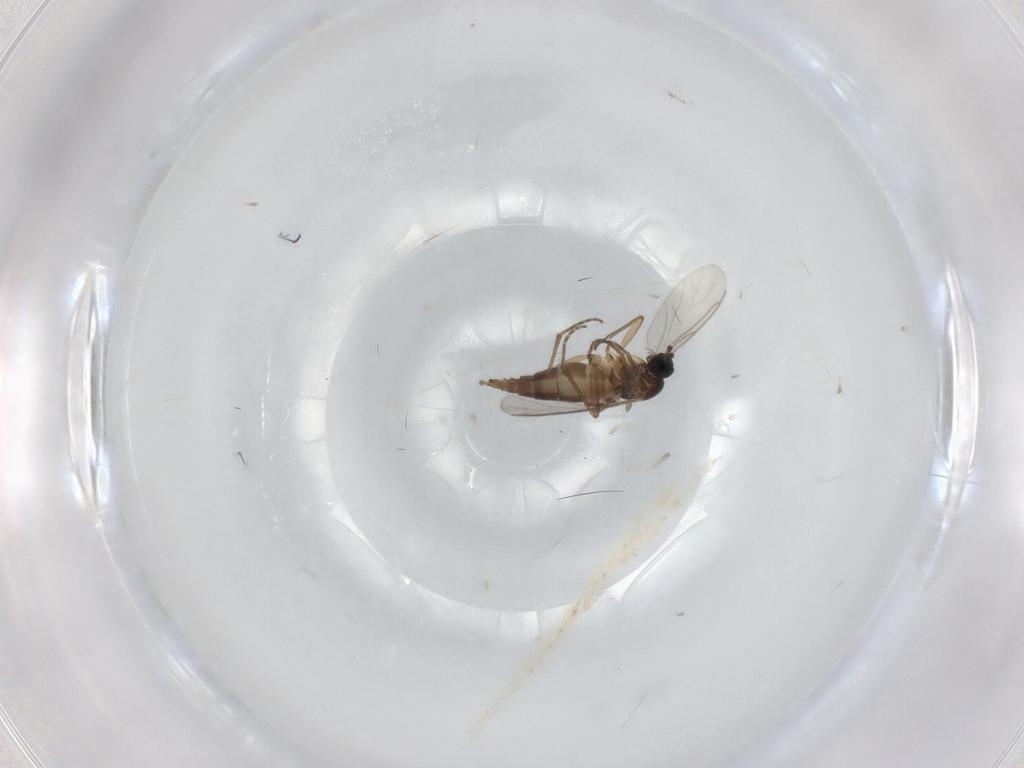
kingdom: Animalia
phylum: Arthropoda
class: Insecta
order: Diptera
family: Sciaridae
